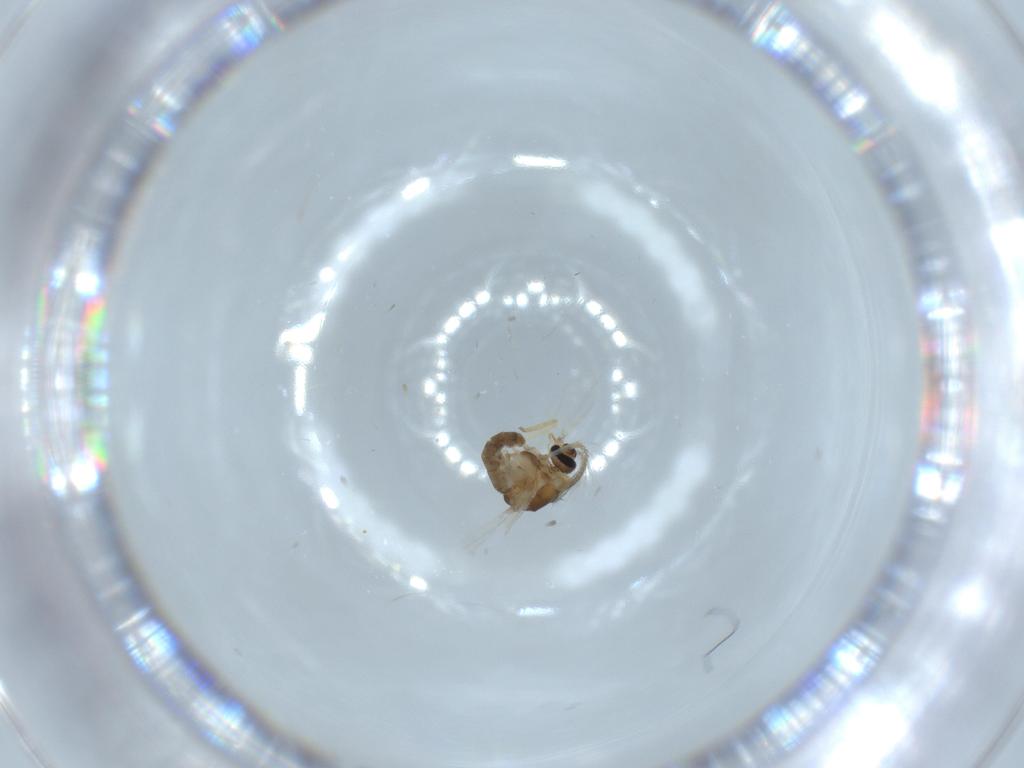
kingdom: Animalia
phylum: Arthropoda
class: Insecta
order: Diptera
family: Ceratopogonidae
